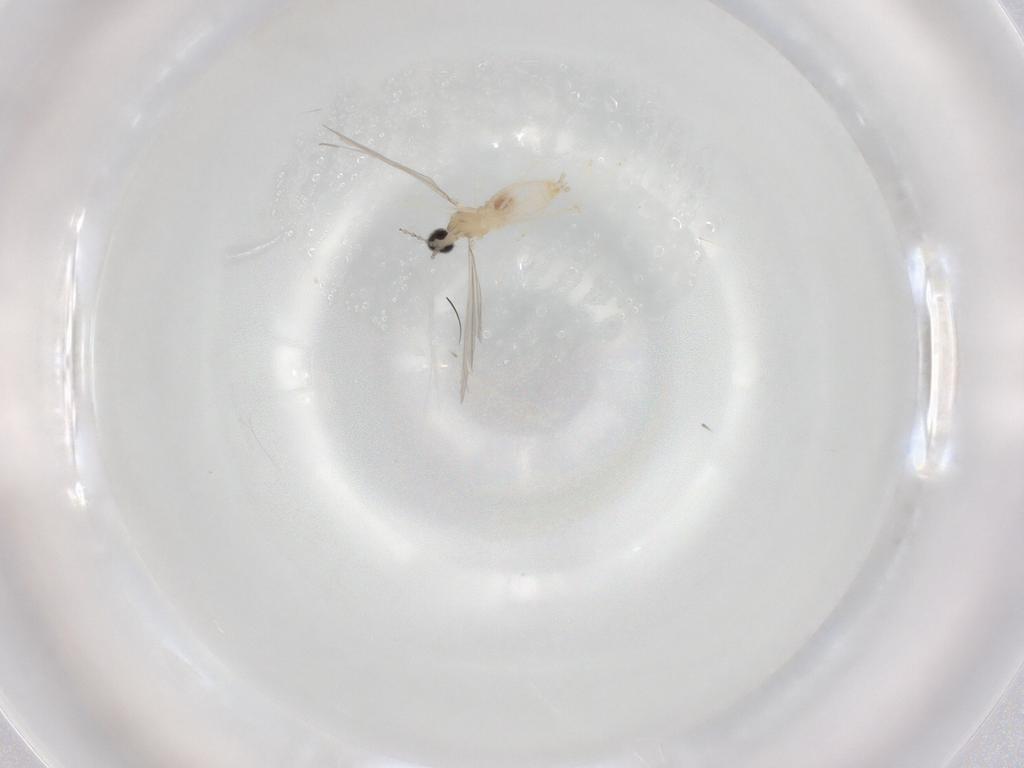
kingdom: Animalia
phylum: Arthropoda
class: Insecta
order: Diptera
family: Cecidomyiidae
